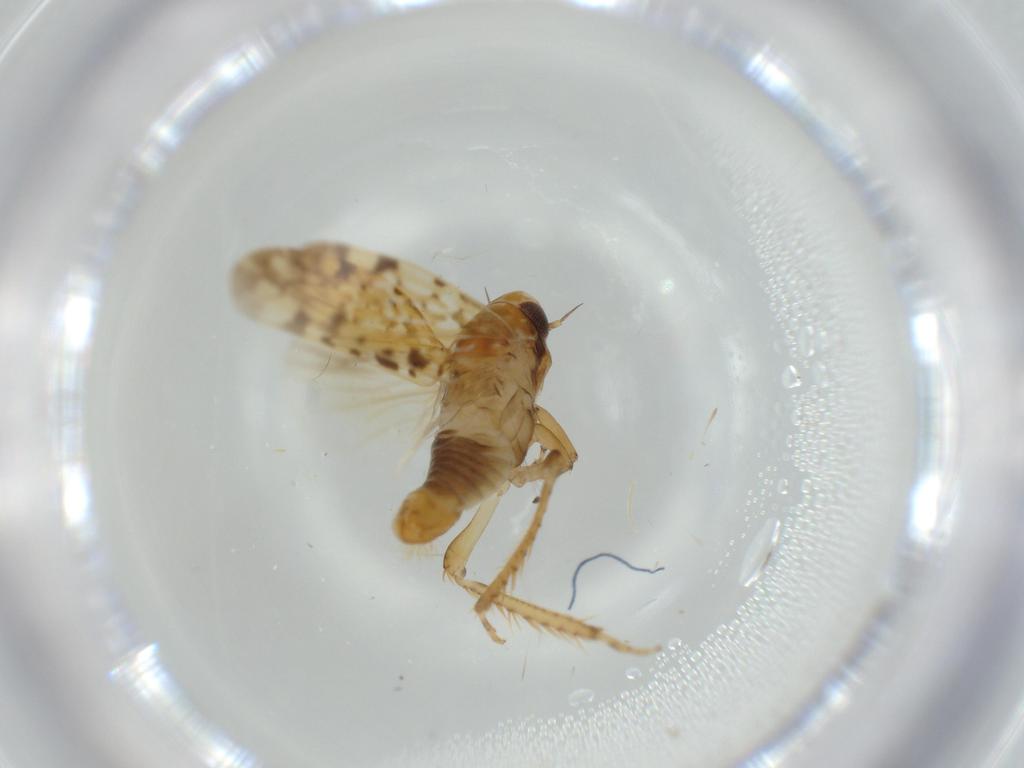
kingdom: Animalia
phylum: Arthropoda
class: Insecta
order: Hemiptera
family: Cicadellidae
